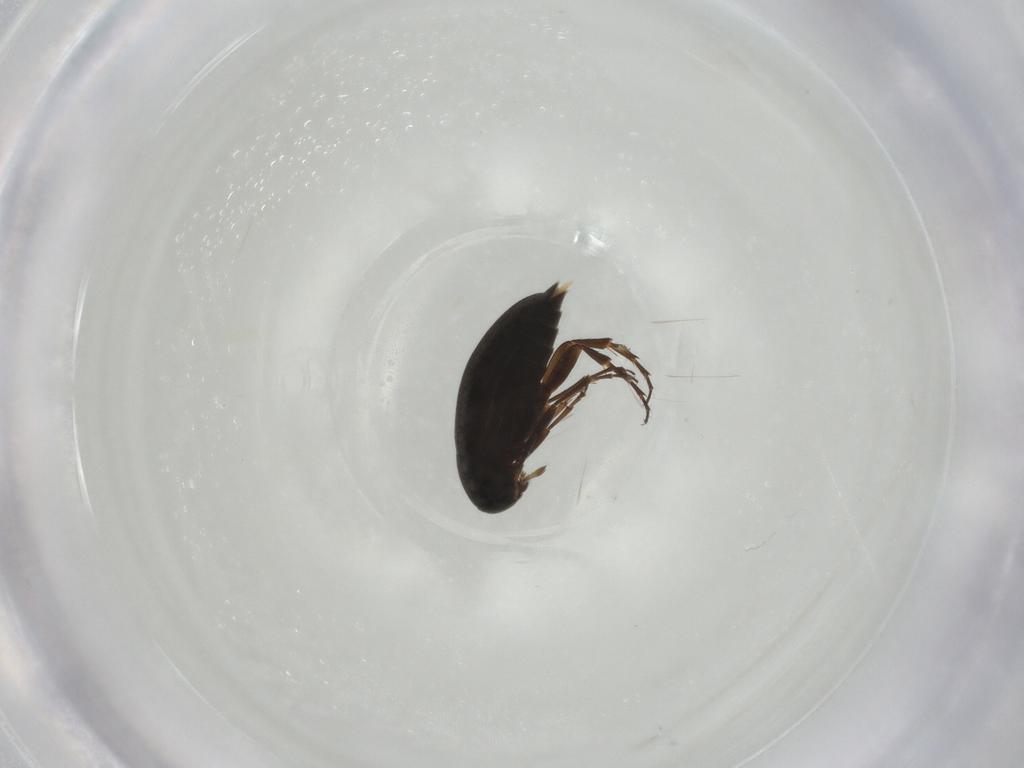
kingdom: Animalia
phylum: Arthropoda
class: Insecta
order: Coleoptera
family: Scraptiidae
